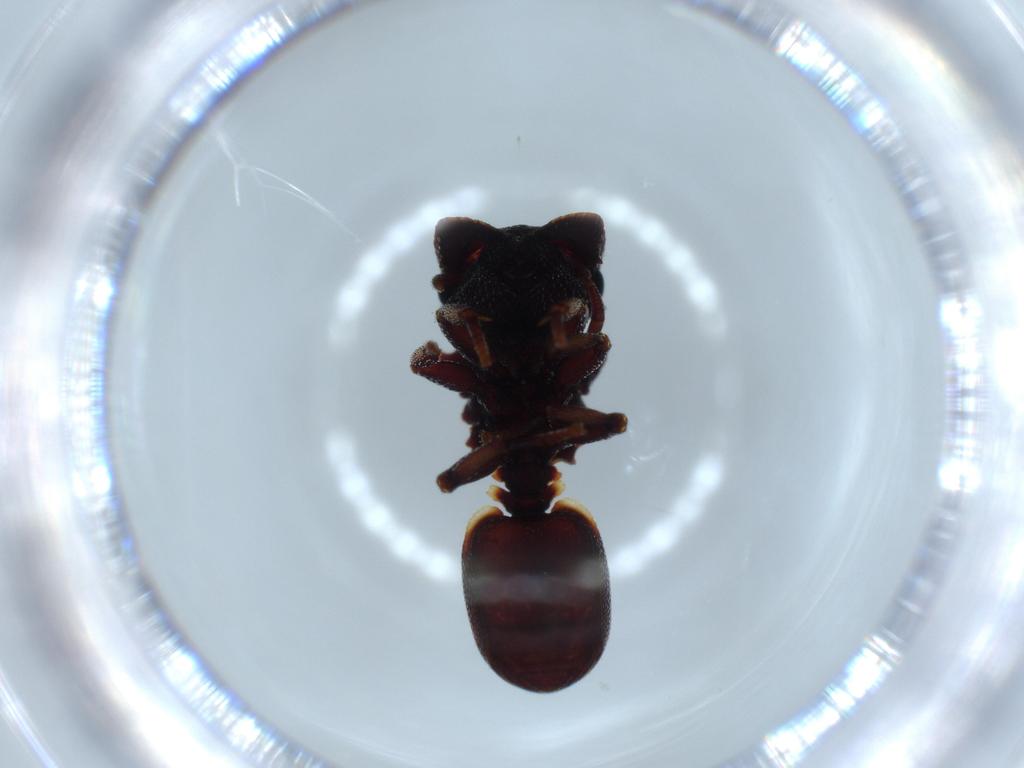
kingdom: Animalia
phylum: Arthropoda
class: Insecta
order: Hymenoptera
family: Formicidae
